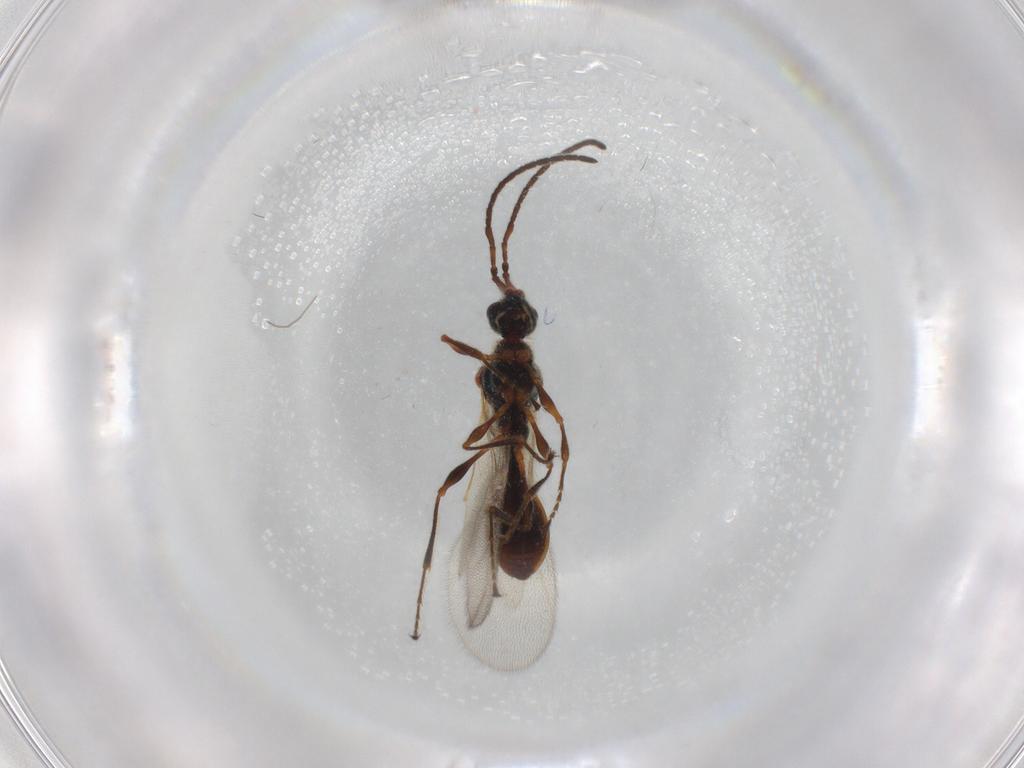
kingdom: Animalia
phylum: Arthropoda
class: Insecta
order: Hymenoptera
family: Diapriidae
